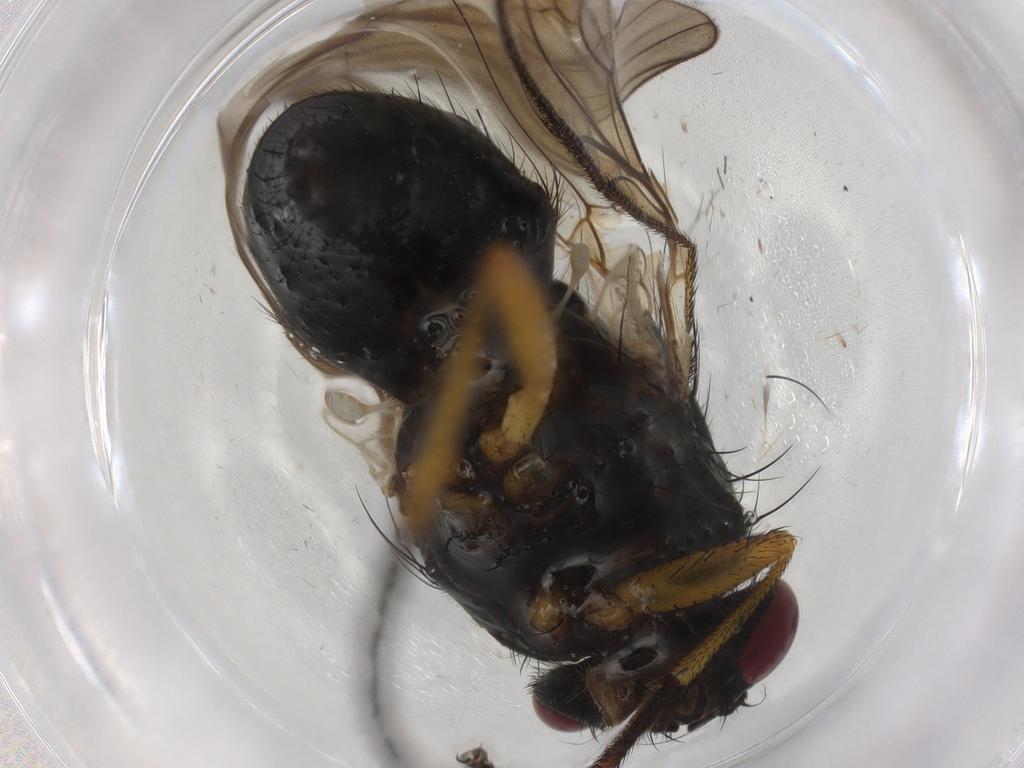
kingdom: Animalia
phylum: Arthropoda
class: Insecta
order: Diptera
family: Muscidae
